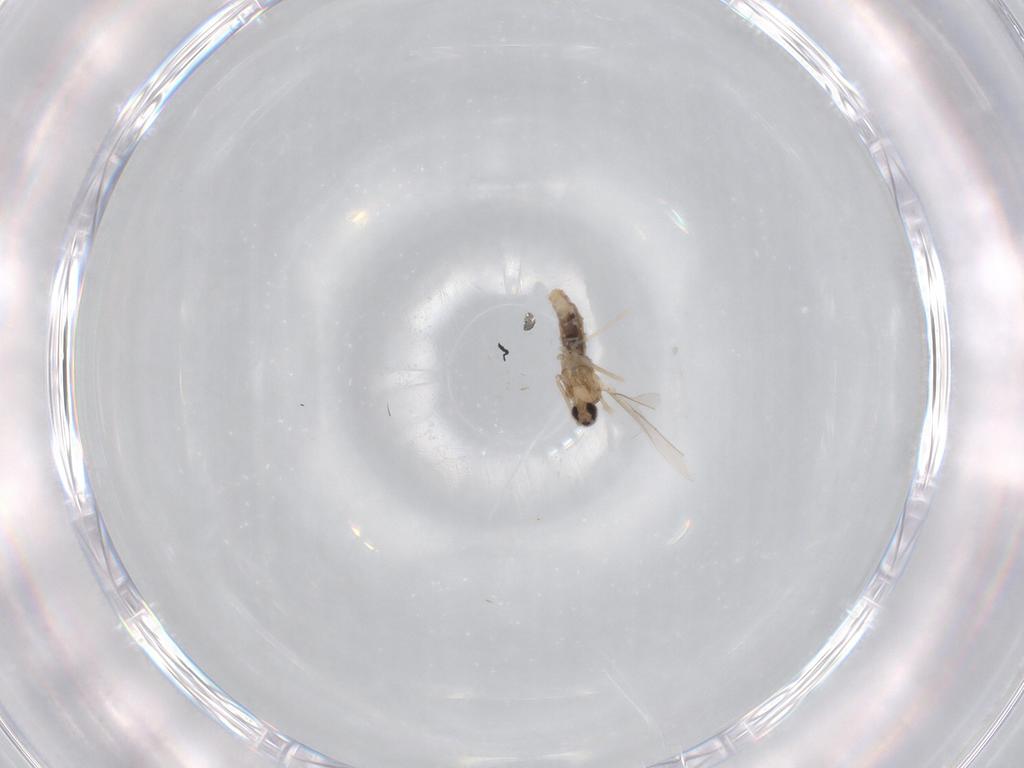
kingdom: Animalia
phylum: Arthropoda
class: Insecta
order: Diptera
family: Cecidomyiidae
